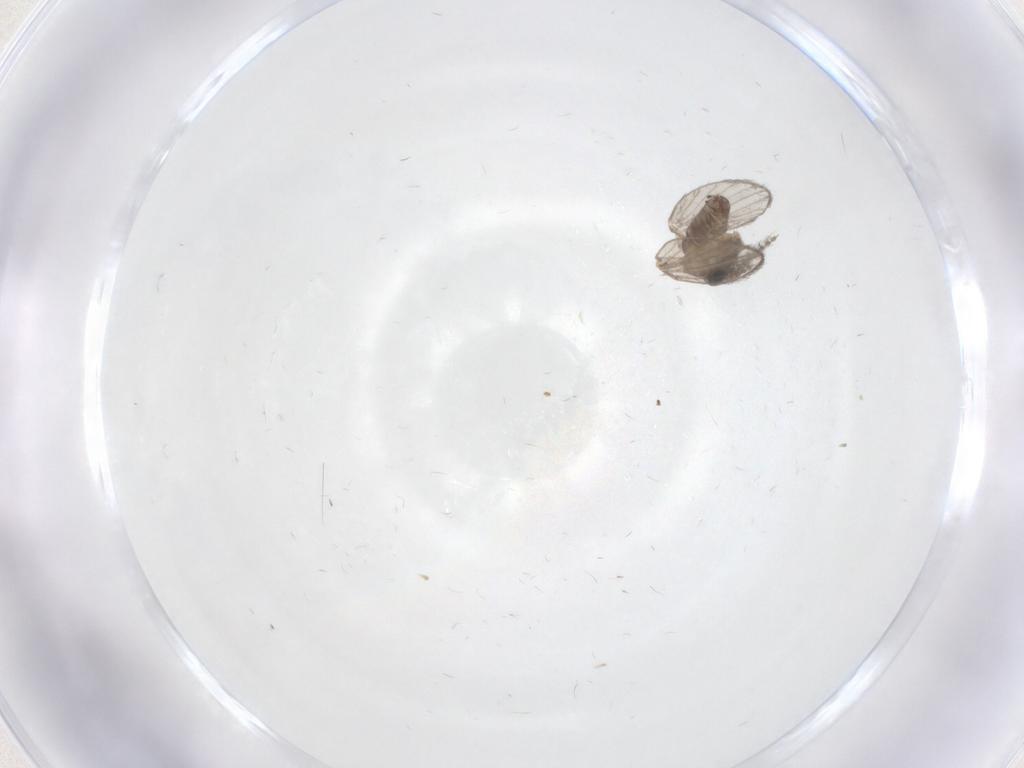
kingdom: Animalia
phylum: Arthropoda
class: Insecta
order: Diptera
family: Psychodidae
